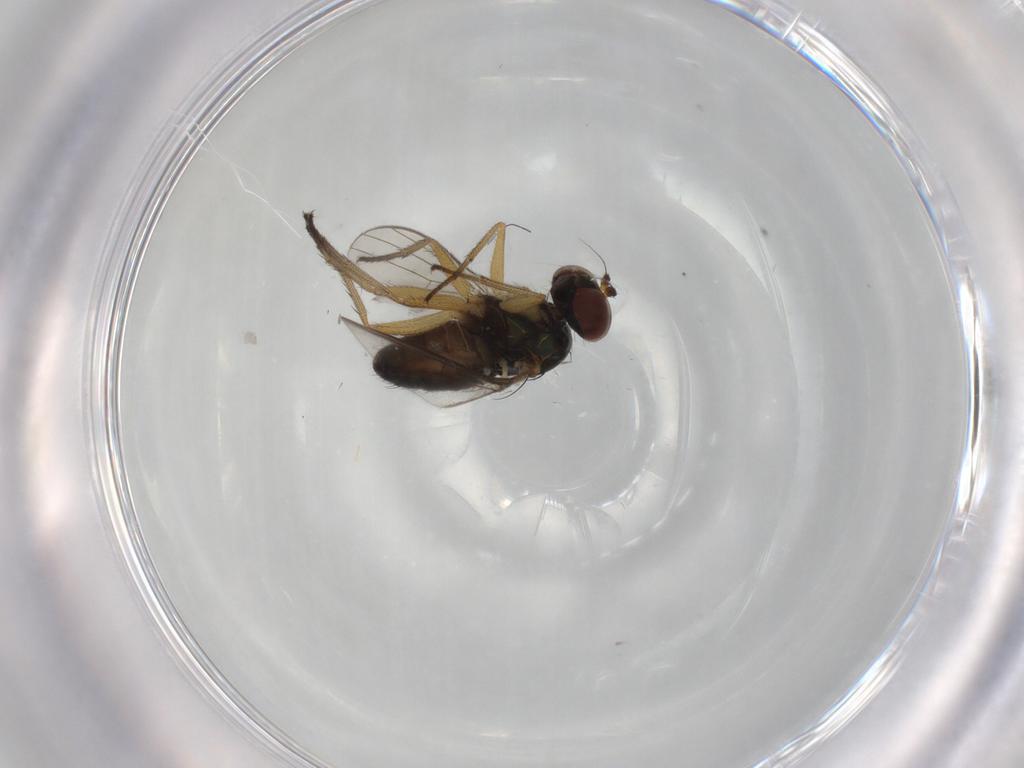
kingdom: Animalia
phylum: Arthropoda
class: Insecta
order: Diptera
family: Dolichopodidae
